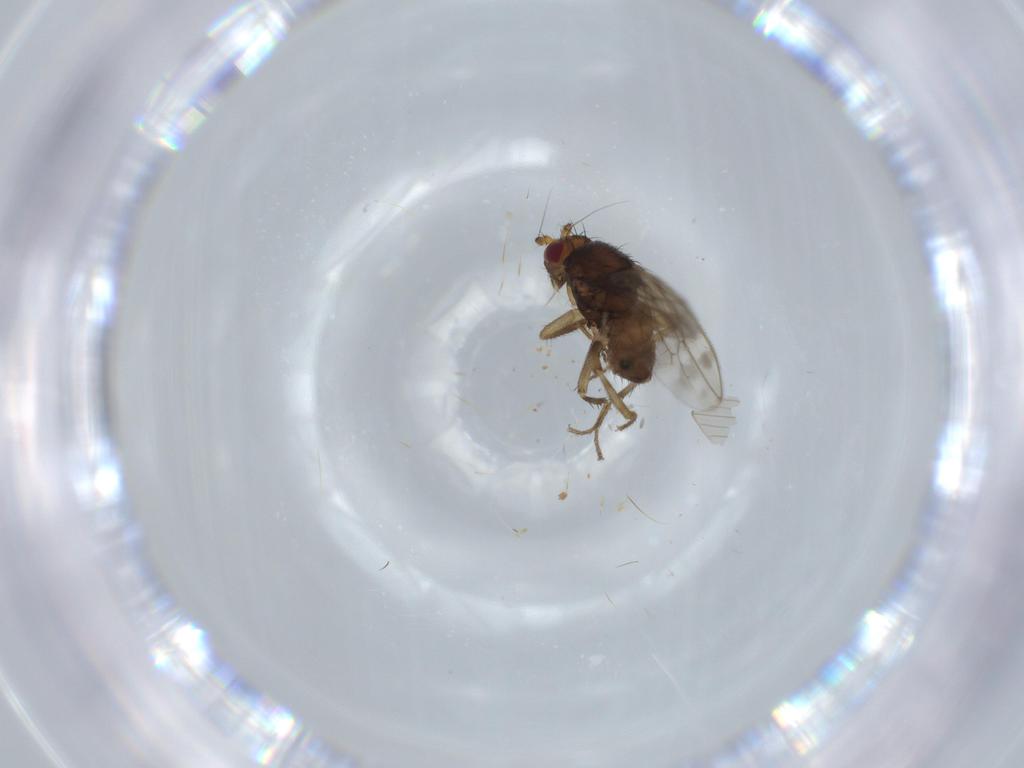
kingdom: Animalia
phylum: Arthropoda
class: Insecta
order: Diptera
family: Sphaeroceridae
